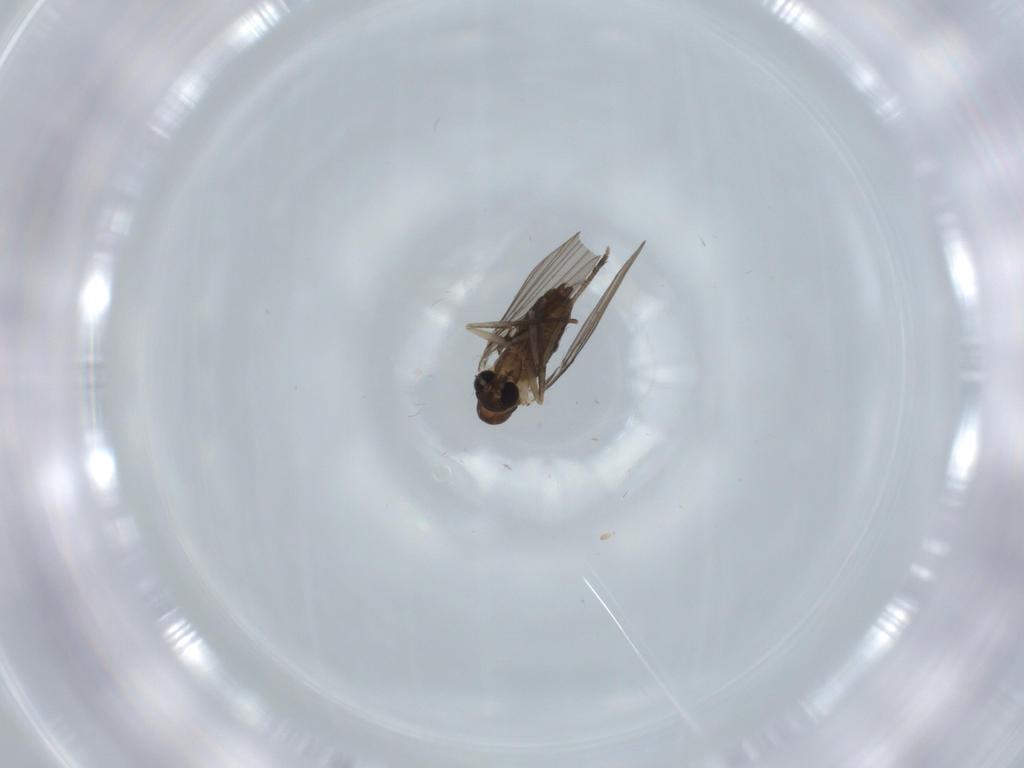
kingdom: Animalia
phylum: Arthropoda
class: Insecta
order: Diptera
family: Psychodidae
